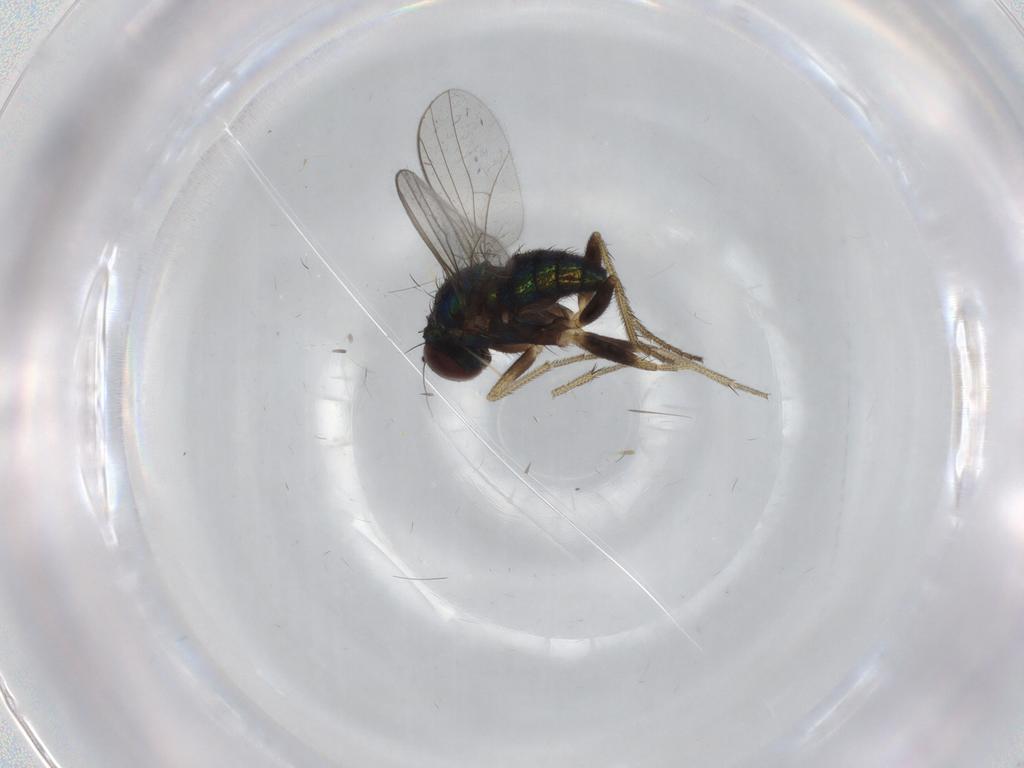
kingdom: Animalia
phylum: Arthropoda
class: Insecta
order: Diptera
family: Dolichopodidae
